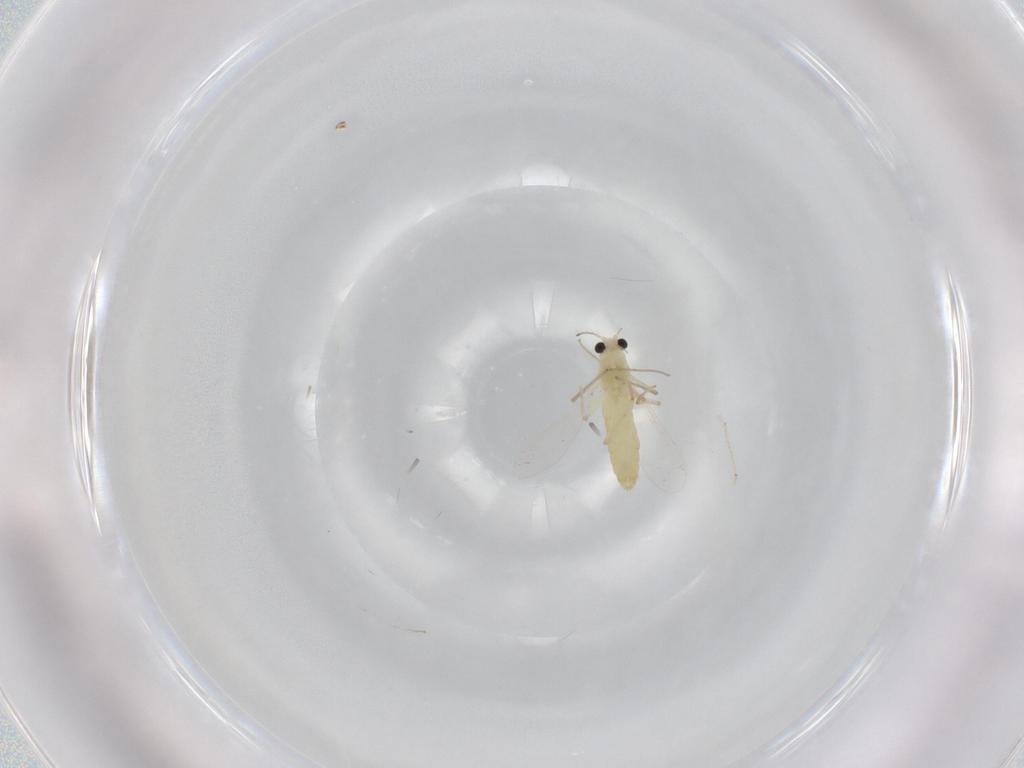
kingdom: Animalia
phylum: Arthropoda
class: Insecta
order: Diptera
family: Chironomidae
